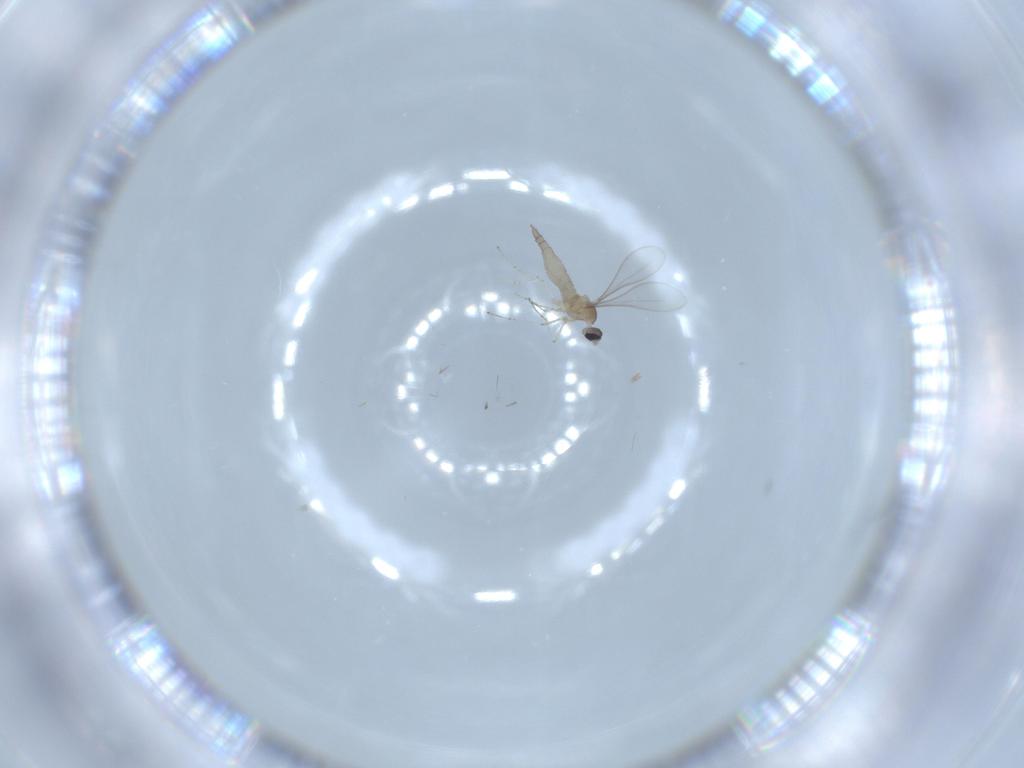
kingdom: Animalia
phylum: Arthropoda
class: Insecta
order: Diptera
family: Cecidomyiidae
